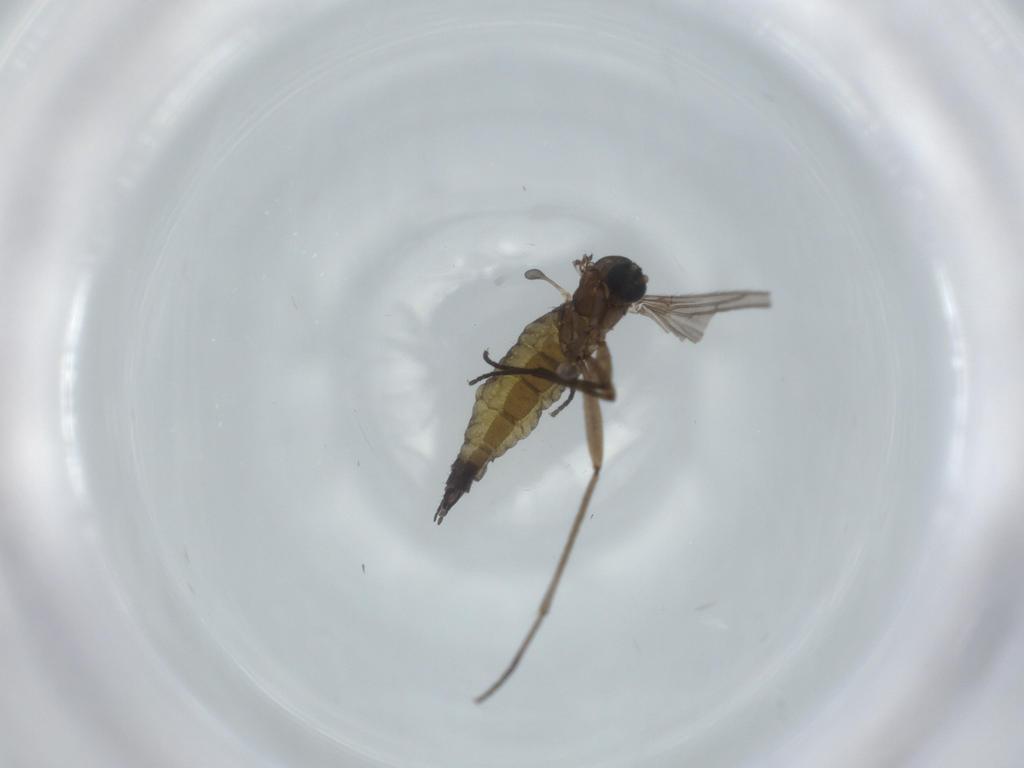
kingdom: Animalia
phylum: Arthropoda
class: Insecta
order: Diptera
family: Sciaridae
